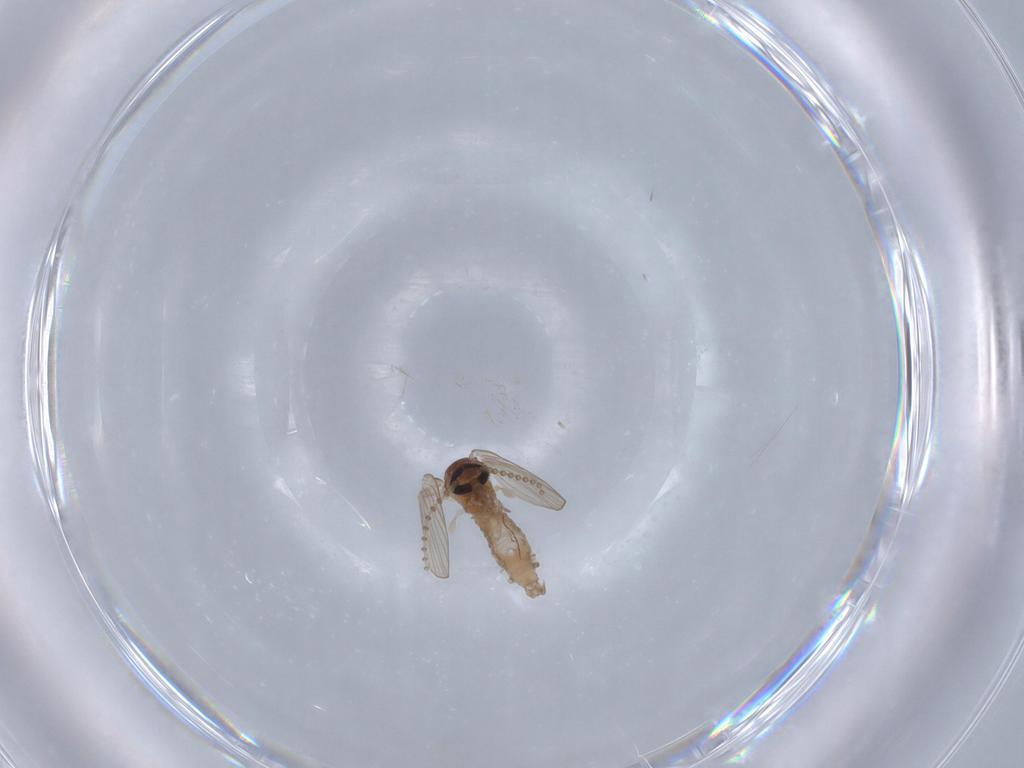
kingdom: Animalia
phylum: Arthropoda
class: Insecta
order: Diptera
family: Psychodidae
